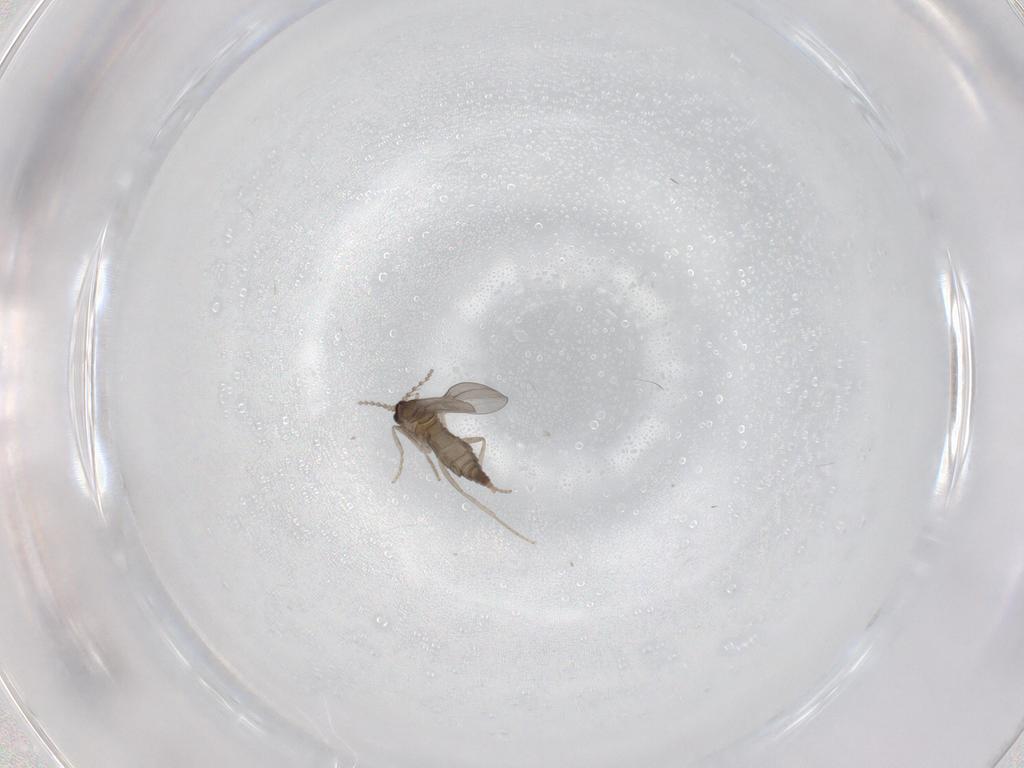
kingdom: Animalia
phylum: Arthropoda
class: Insecta
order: Diptera
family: Cecidomyiidae
